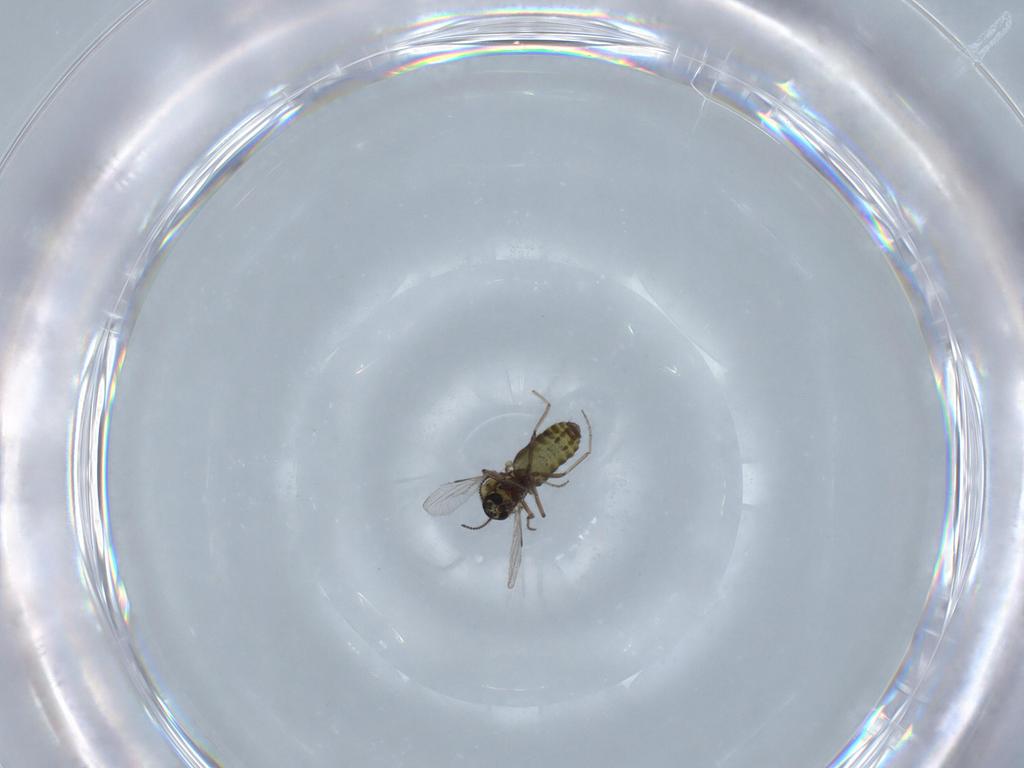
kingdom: Animalia
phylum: Arthropoda
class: Insecta
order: Diptera
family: Ceratopogonidae
